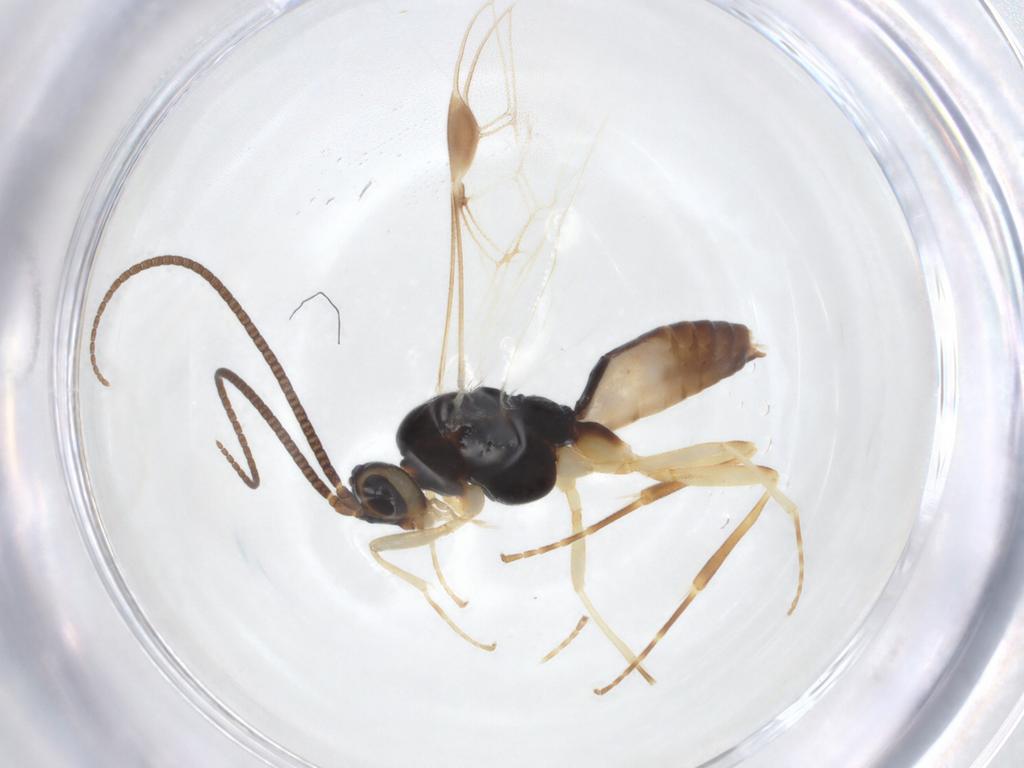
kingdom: Animalia
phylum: Arthropoda
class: Insecta
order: Hymenoptera
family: Braconidae
